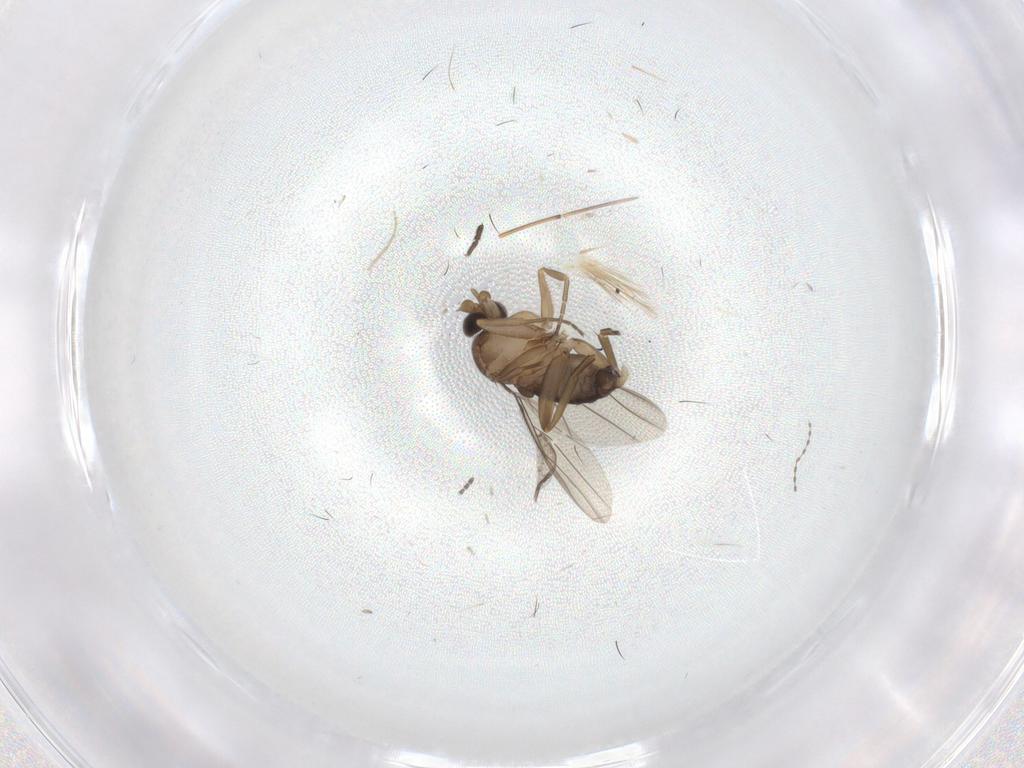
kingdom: Animalia
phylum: Arthropoda
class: Insecta
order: Diptera
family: Phoridae
